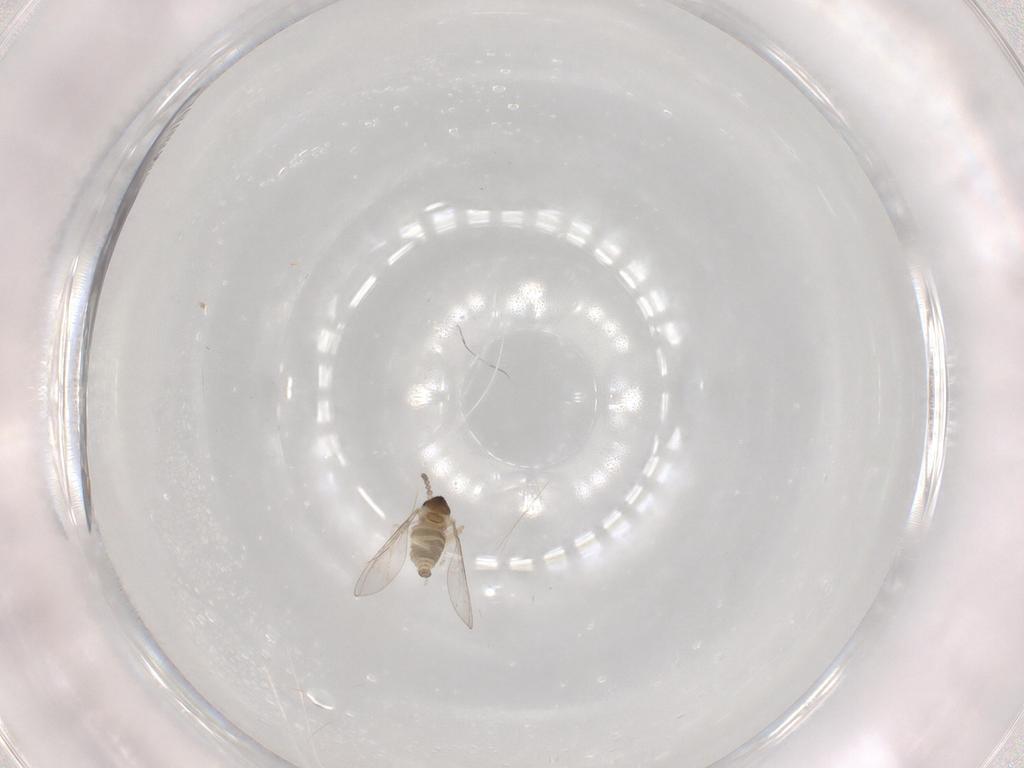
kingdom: Animalia
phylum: Arthropoda
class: Insecta
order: Diptera
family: Cecidomyiidae
